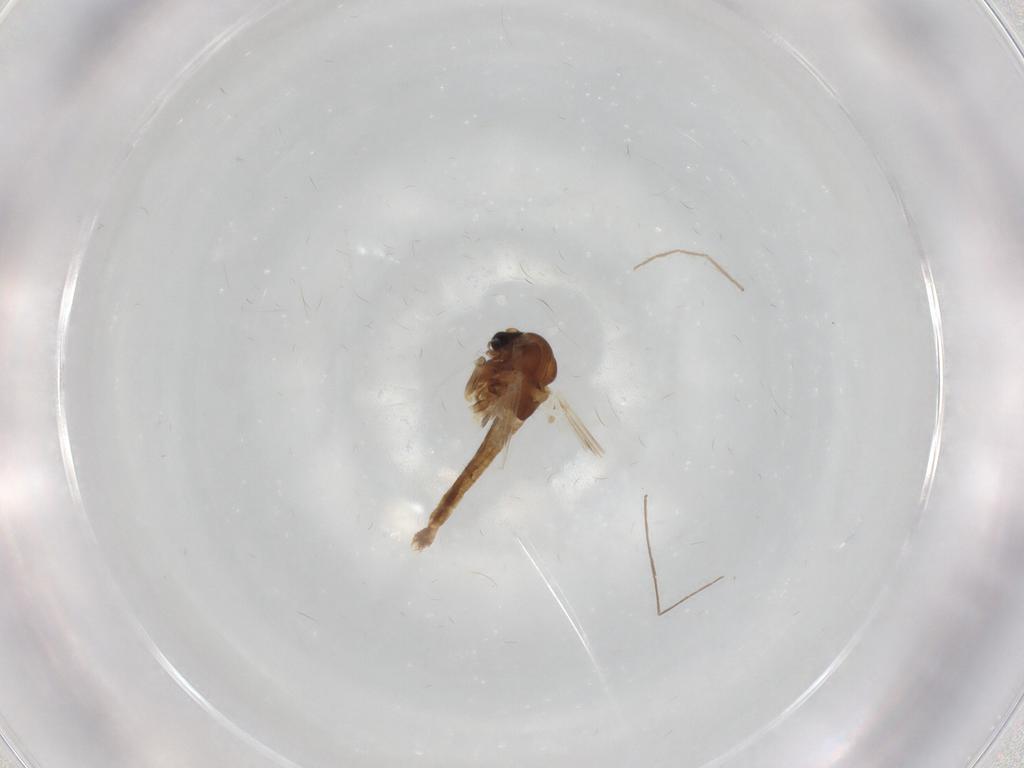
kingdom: Animalia
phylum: Arthropoda
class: Insecta
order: Diptera
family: Chironomidae
